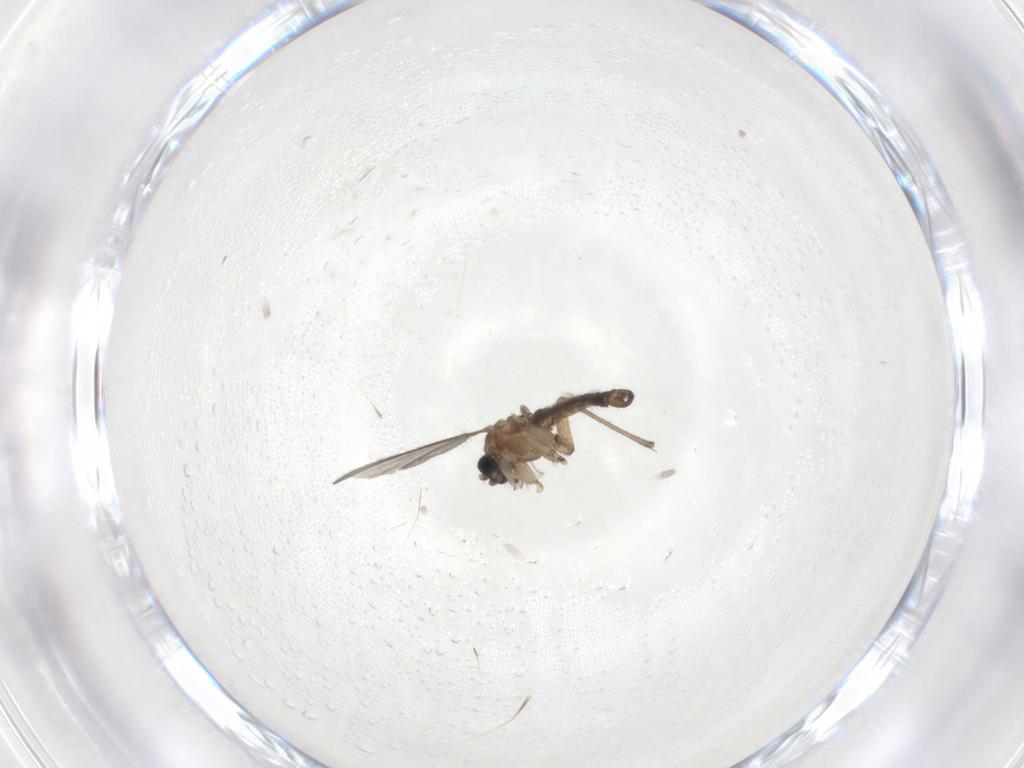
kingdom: Animalia
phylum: Arthropoda
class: Insecta
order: Diptera
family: Sciaridae
